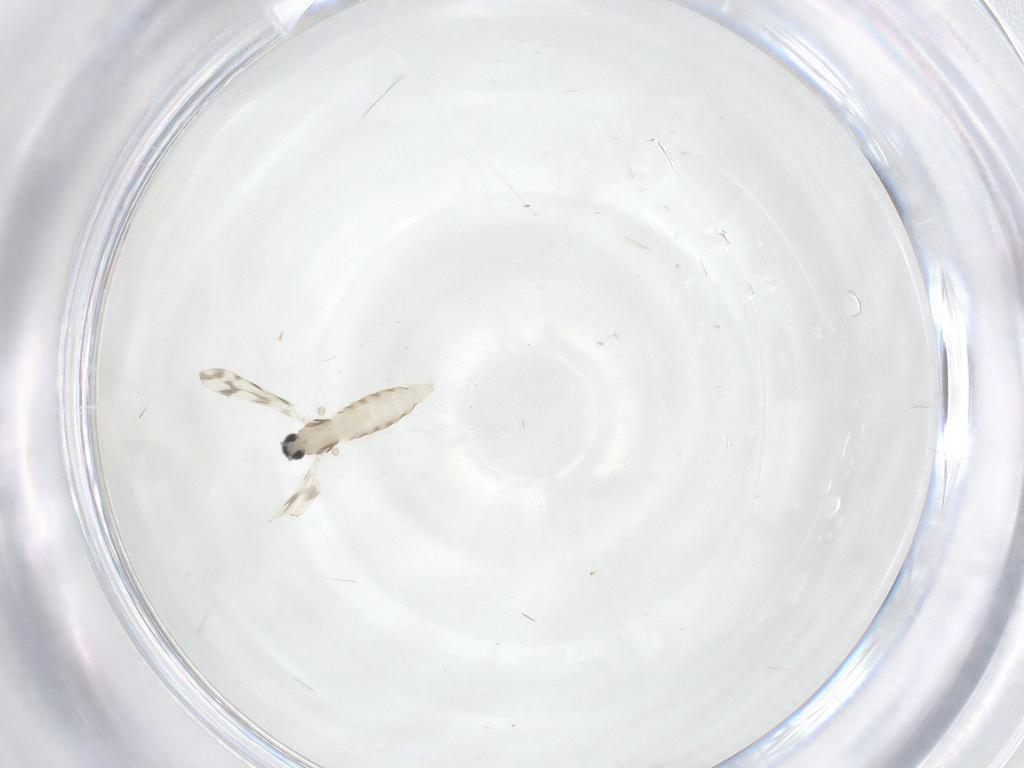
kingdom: Animalia
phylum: Arthropoda
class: Insecta
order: Diptera
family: Cecidomyiidae
